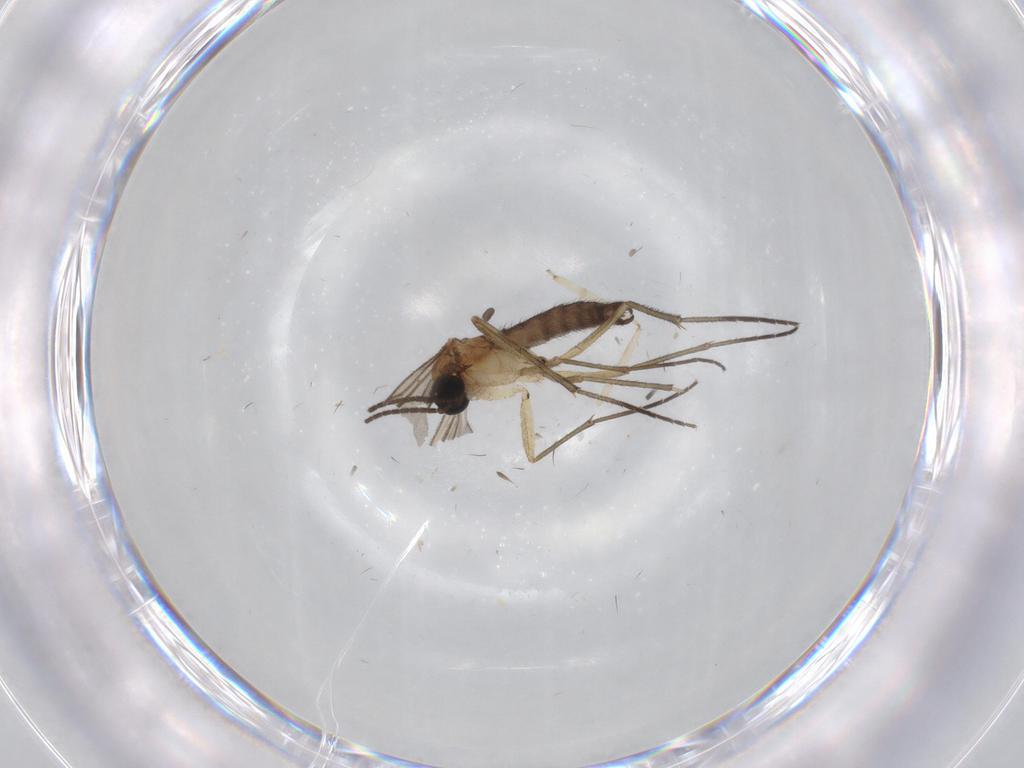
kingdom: Animalia
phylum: Arthropoda
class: Insecta
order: Diptera
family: Cecidomyiidae
